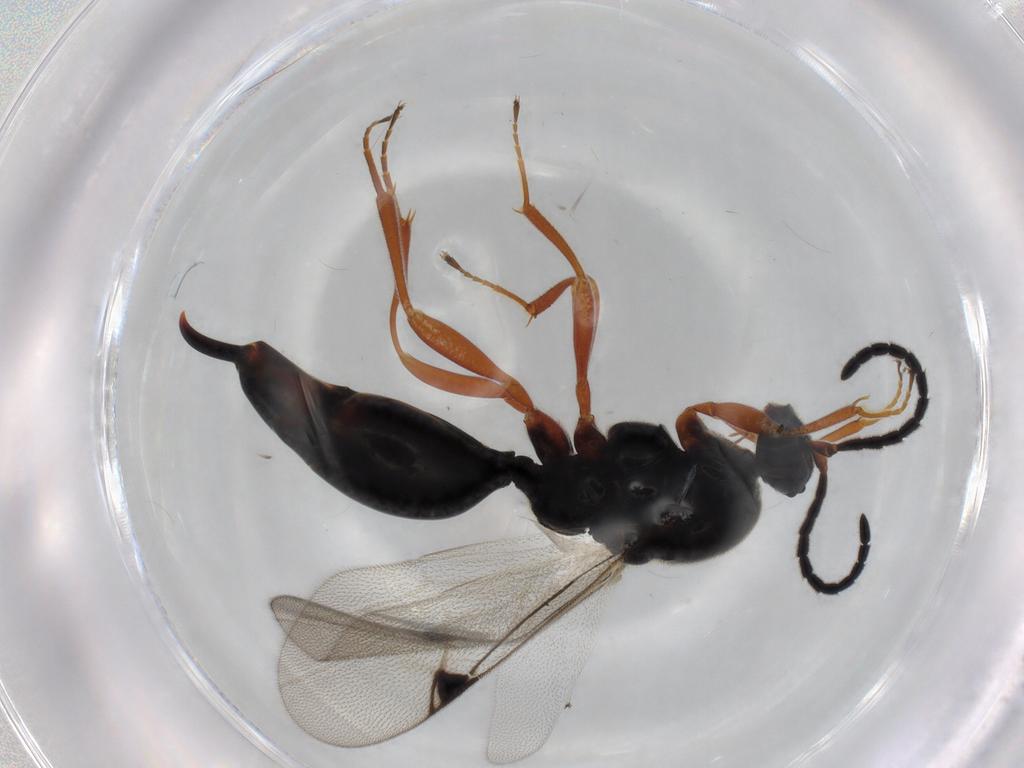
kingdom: Animalia
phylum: Arthropoda
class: Insecta
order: Hymenoptera
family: Proctotrupidae
